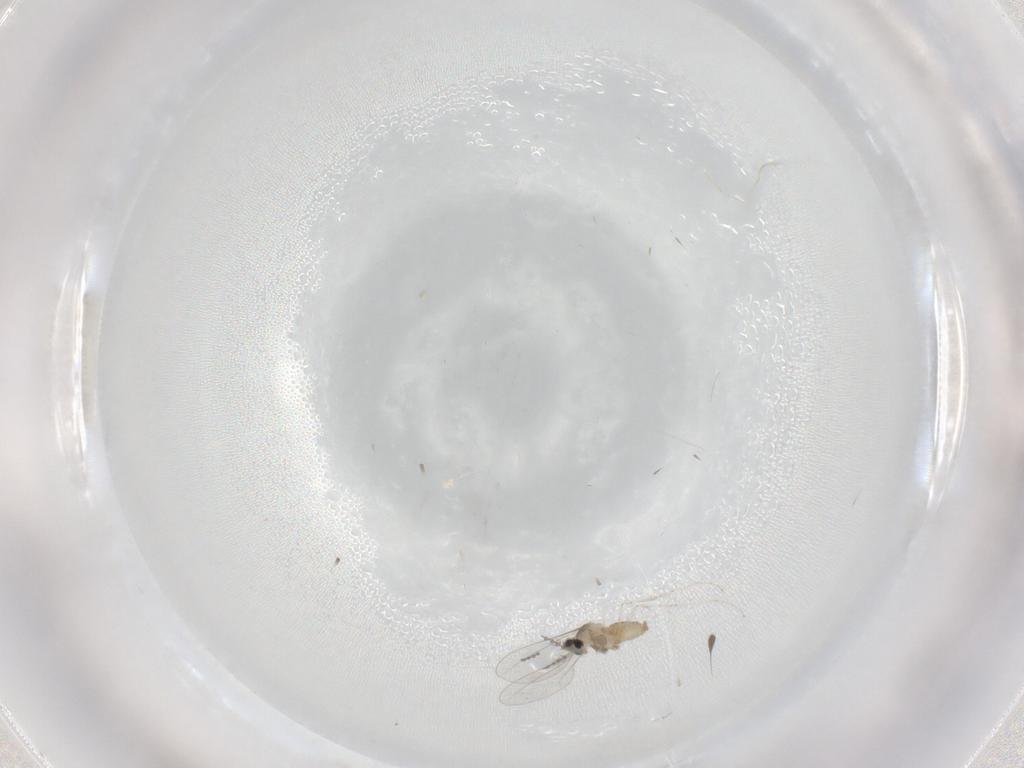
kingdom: Animalia
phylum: Arthropoda
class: Insecta
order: Diptera
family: Cecidomyiidae
